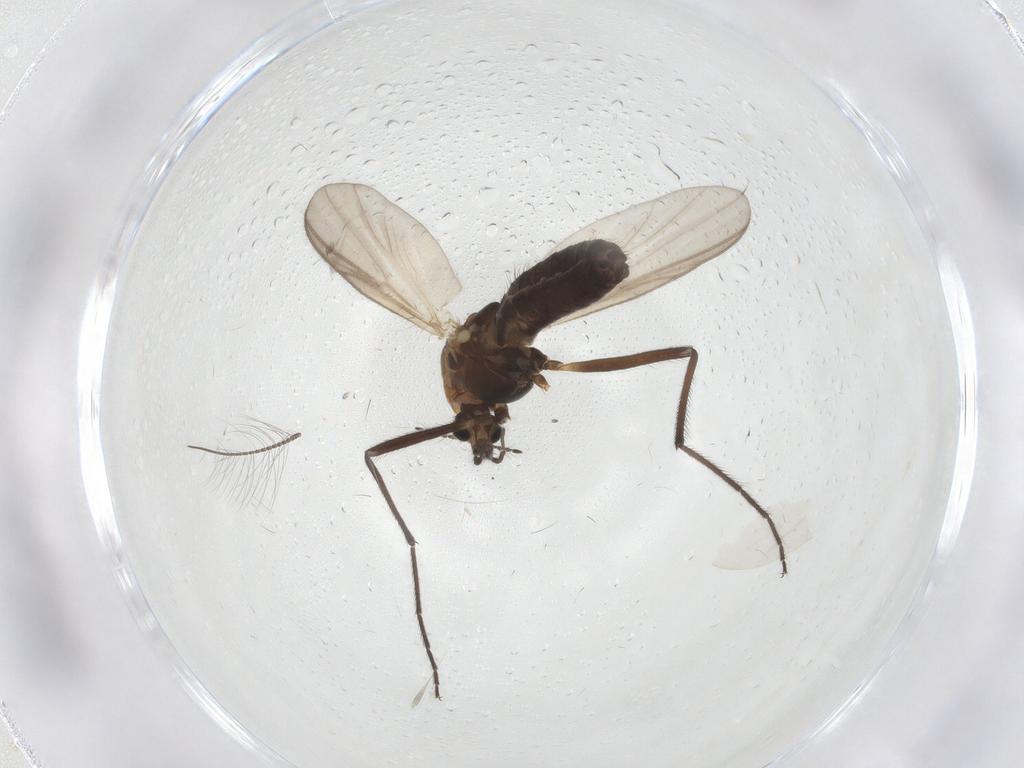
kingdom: Animalia
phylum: Arthropoda
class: Insecta
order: Diptera
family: Chironomidae
